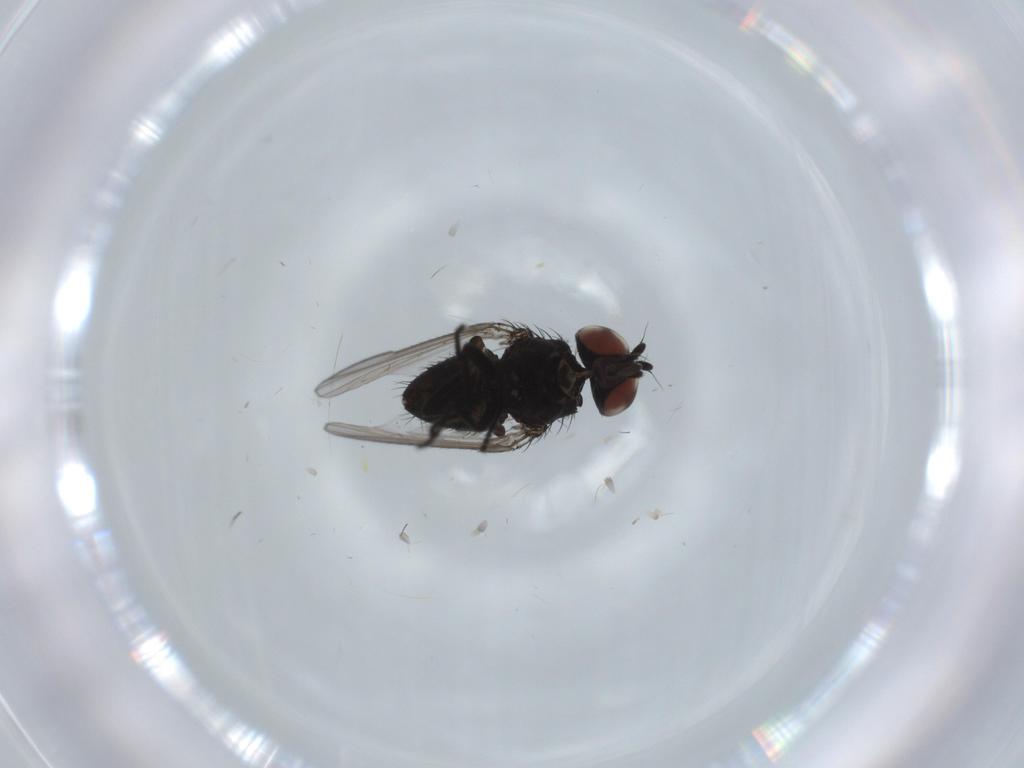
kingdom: Animalia
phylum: Arthropoda
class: Insecta
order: Diptera
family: Milichiidae
